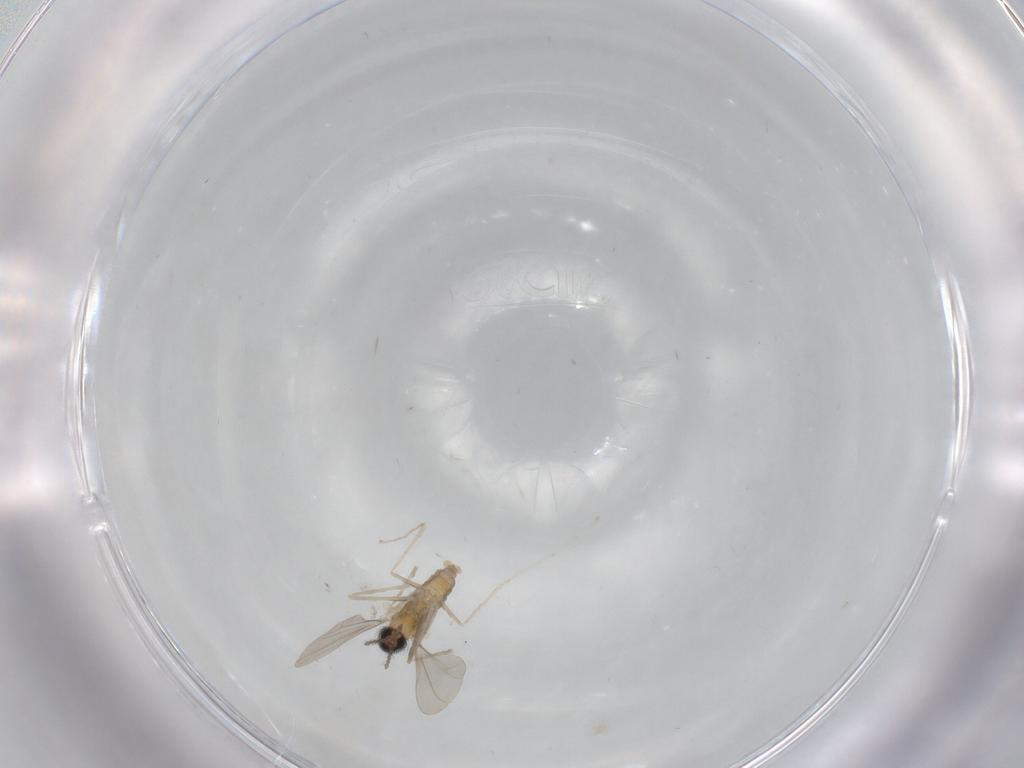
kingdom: Animalia
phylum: Arthropoda
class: Insecta
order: Diptera
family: Cecidomyiidae
